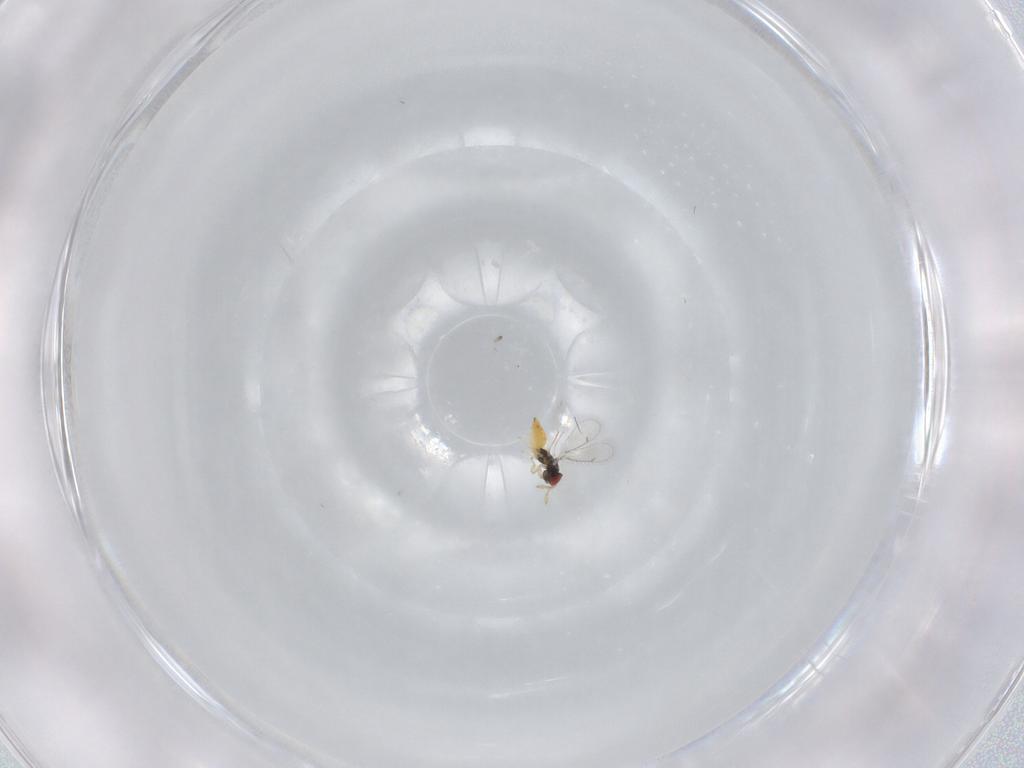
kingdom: Animalia
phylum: Arthropoda
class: Insecta
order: Hymenoptera
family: Eulophidae
